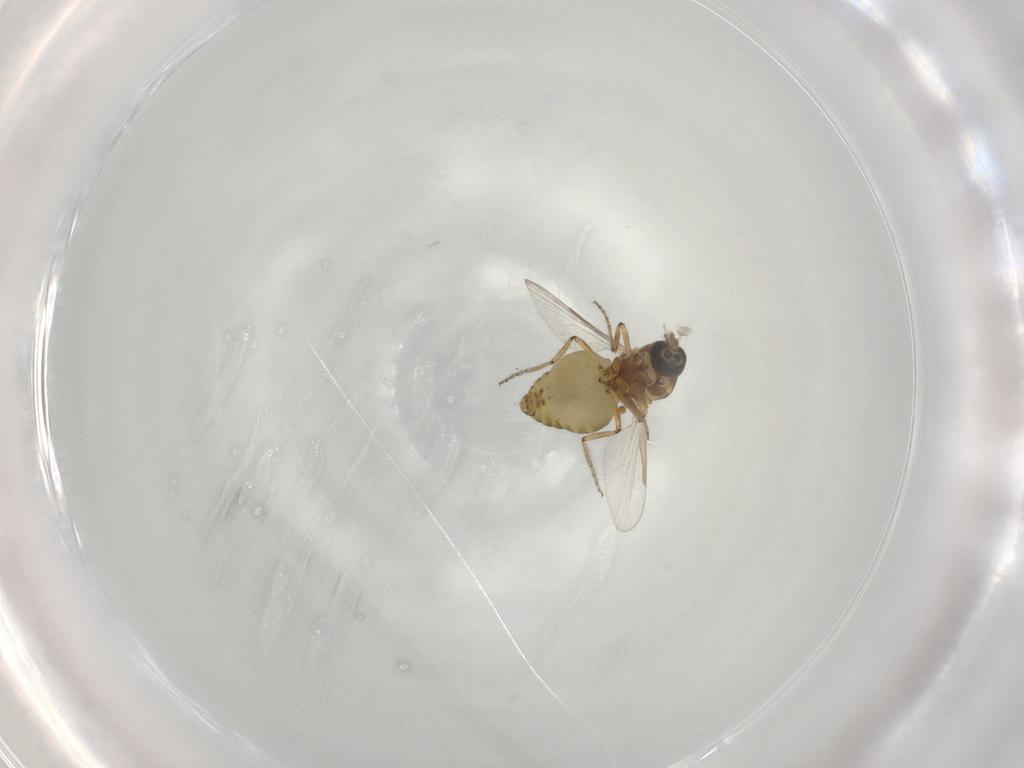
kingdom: Animalia
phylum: Arthropoda
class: Insecta
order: Diptera
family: Ceratopogonidae
